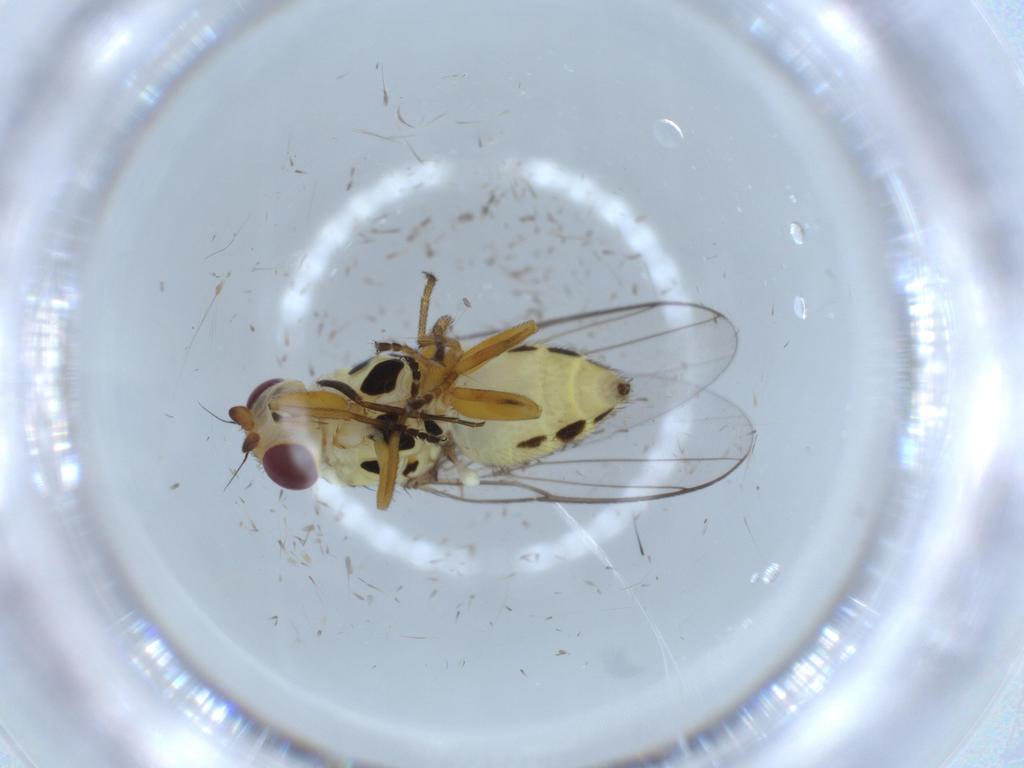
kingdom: Animalia
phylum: Arthropoda
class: Insecta
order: Diptera
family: Chloropidae
